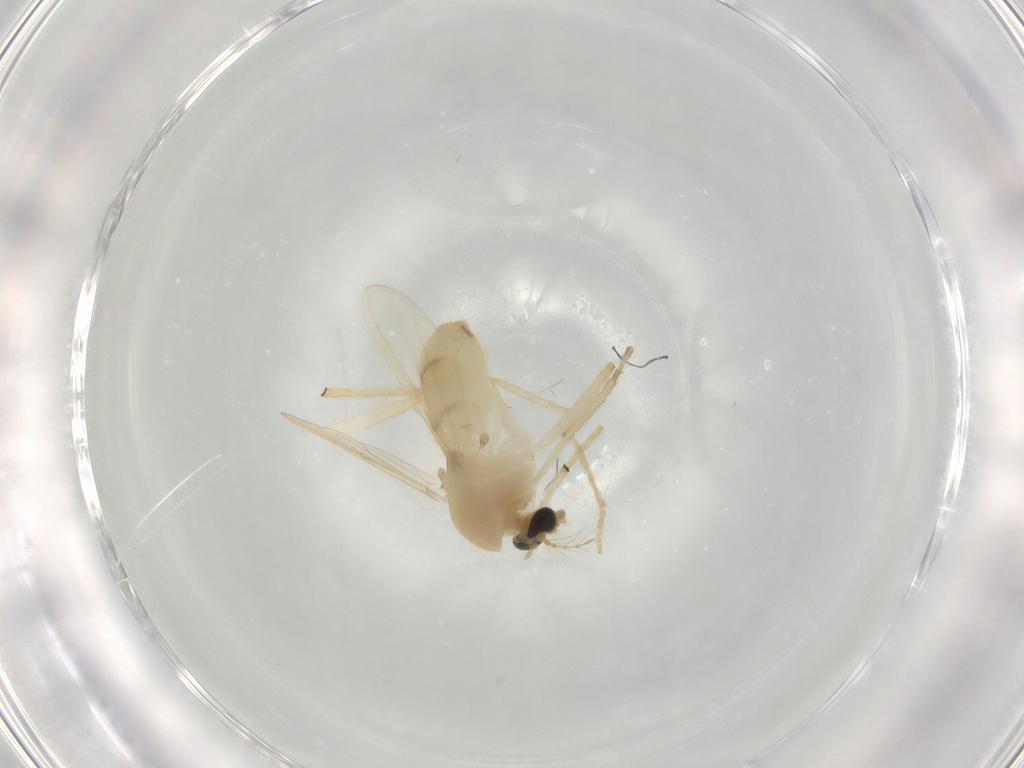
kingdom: Animalia
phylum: Arthropoda
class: Insecta
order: Diptera
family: Chironomidae
